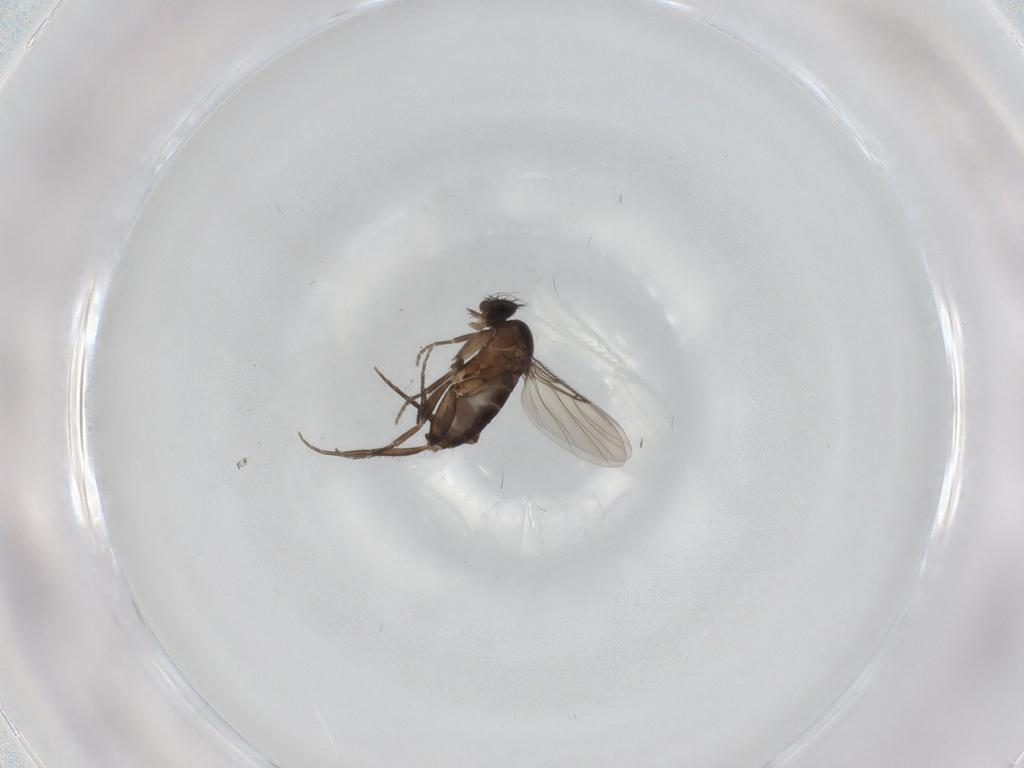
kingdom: Animalia
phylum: Arthropoda
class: Insecta
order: Diptera
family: Phoridae
